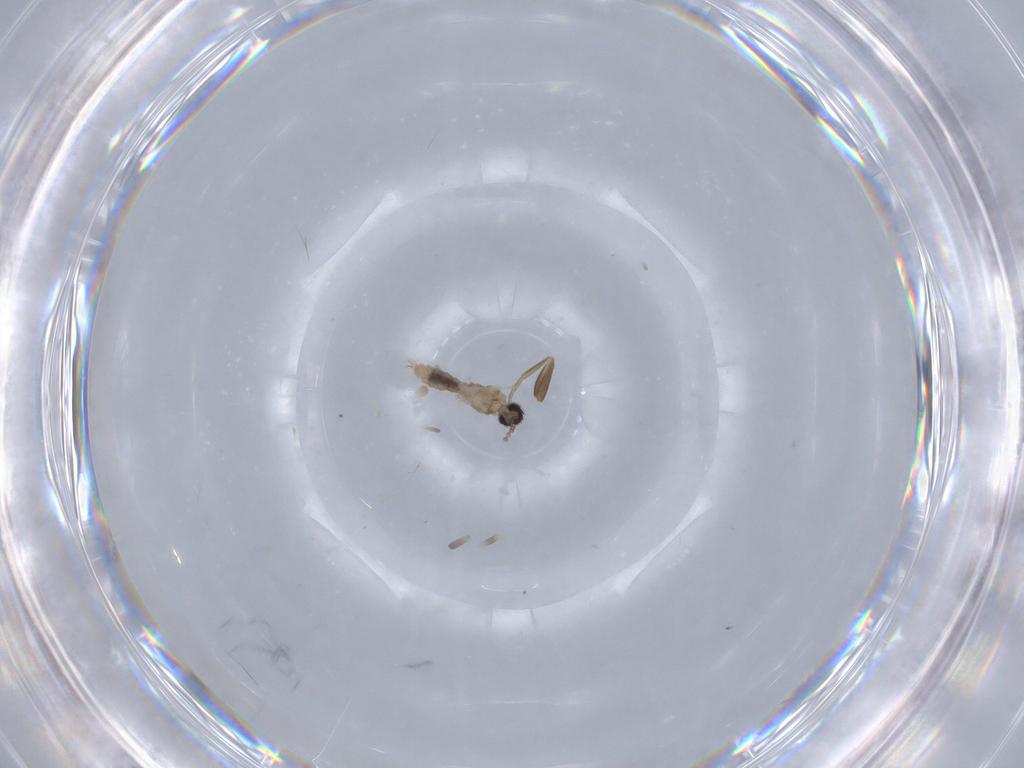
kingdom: Animalia
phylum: Arthropoda
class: Insecta
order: Diptera
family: Cecidomyiidae
